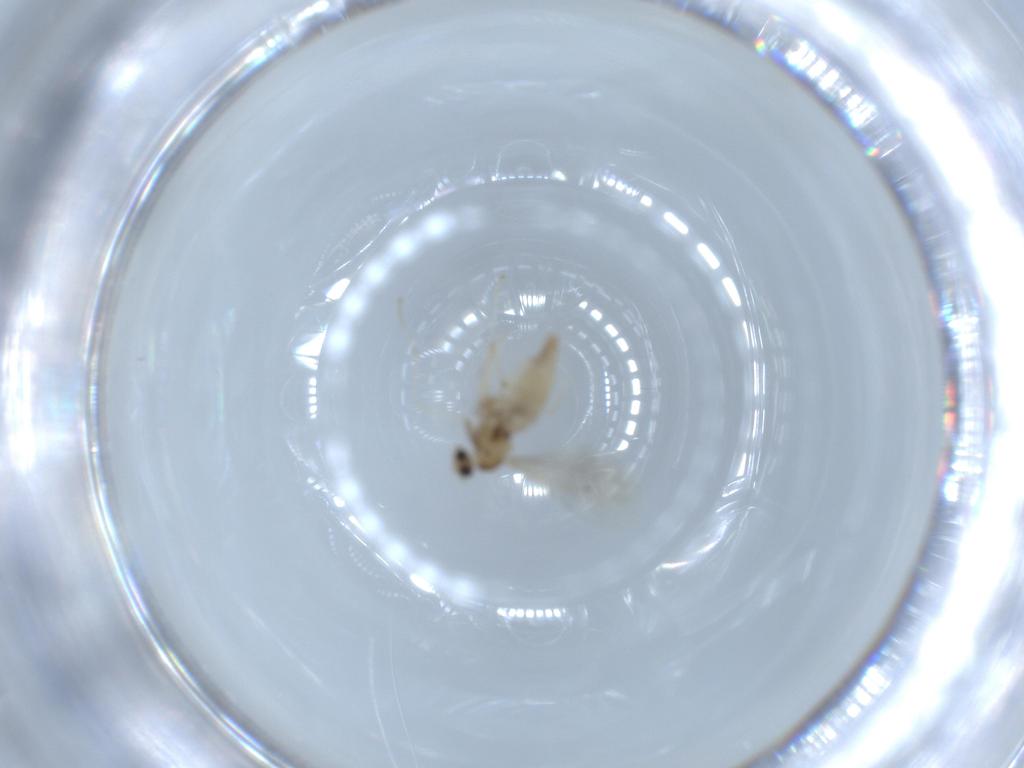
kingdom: Animalia
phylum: Arthropoda
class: Insecta
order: Diptera
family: Cecidomyiidae
